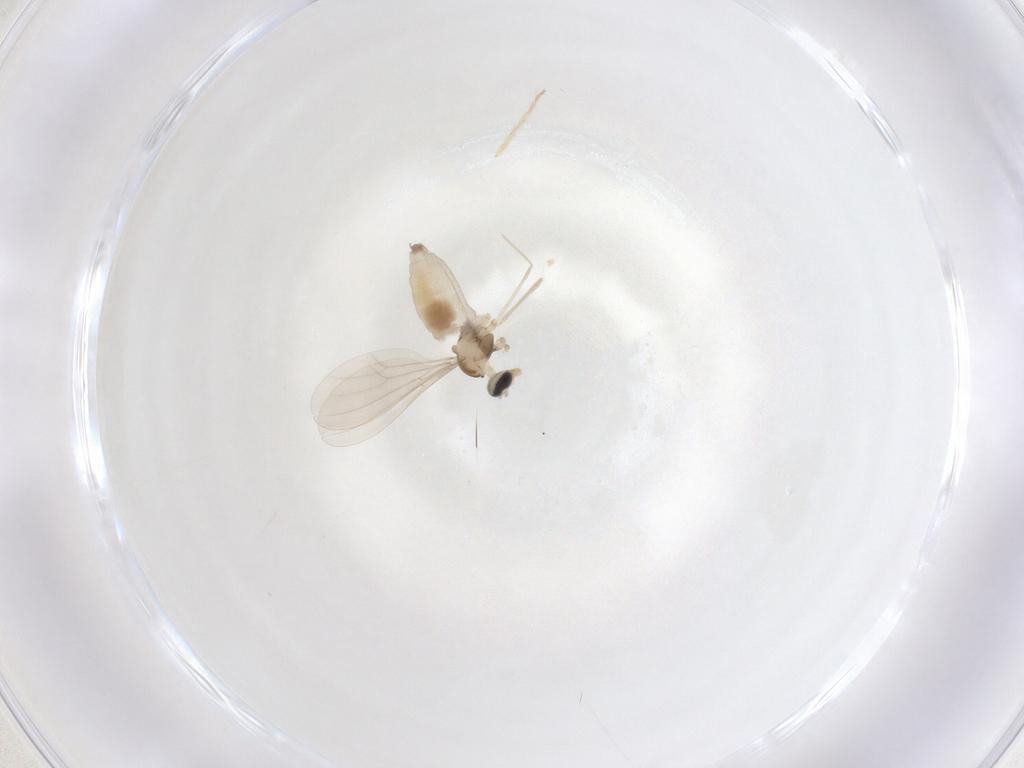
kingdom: Animalia
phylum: Arthropoda
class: Insecta
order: Diptera
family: Cecidomyiidae
